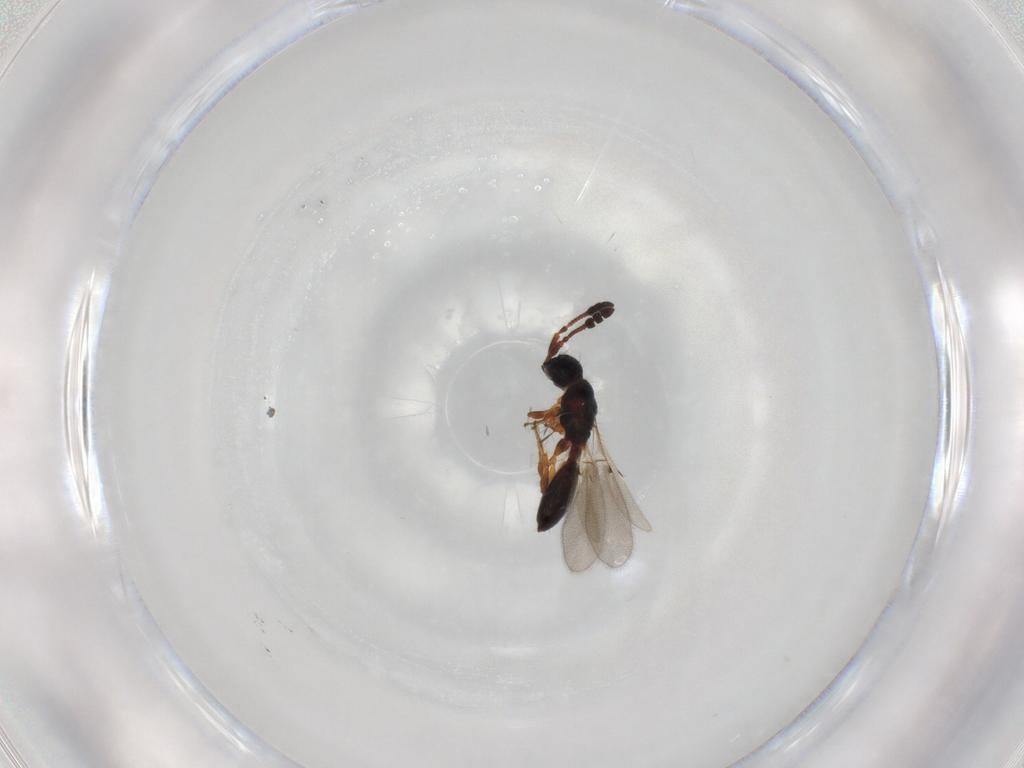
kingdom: Animalia
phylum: Arthropoda
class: Insecta
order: Hymenoptera
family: Diapriidae
